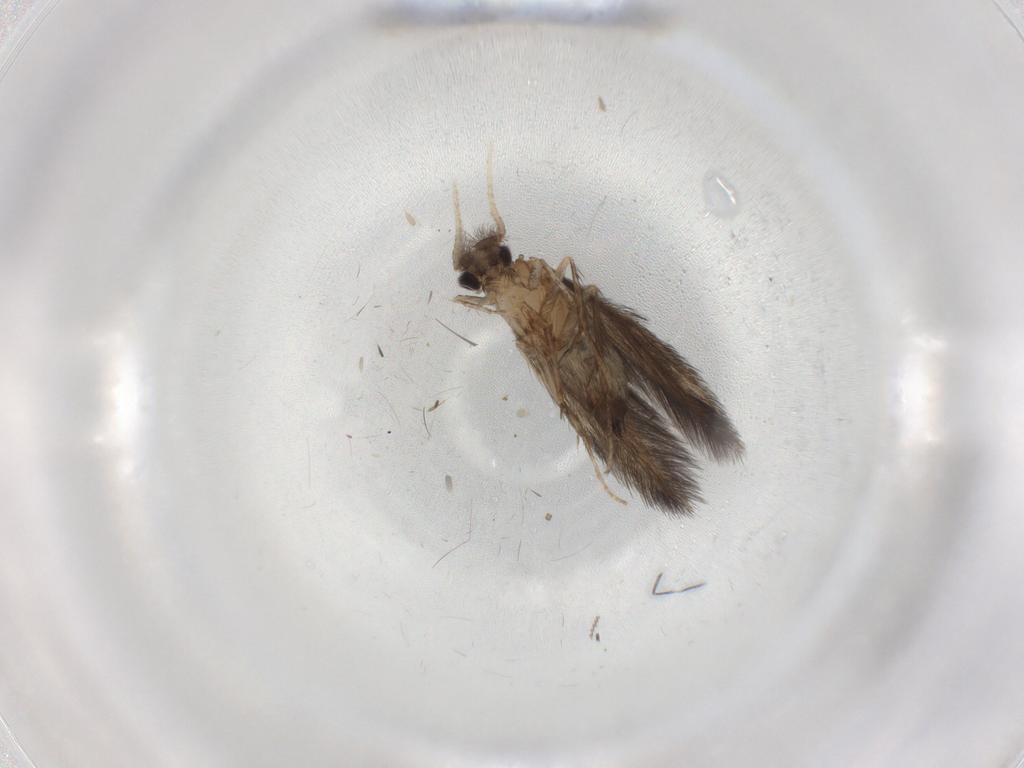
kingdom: Animalia
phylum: Arthropoda
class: Insecta
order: Trichoptera
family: Hydroptilidae
